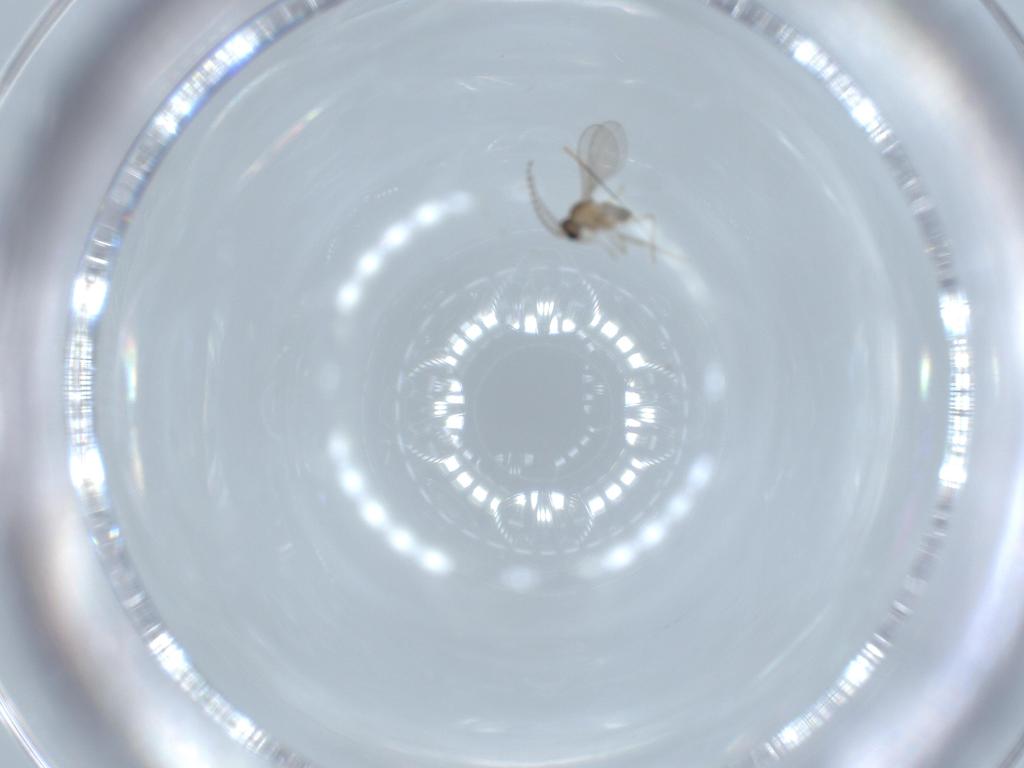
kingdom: Animalia
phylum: Arthropoda
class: Insecta
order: Diptera
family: Cecidomyiidae
